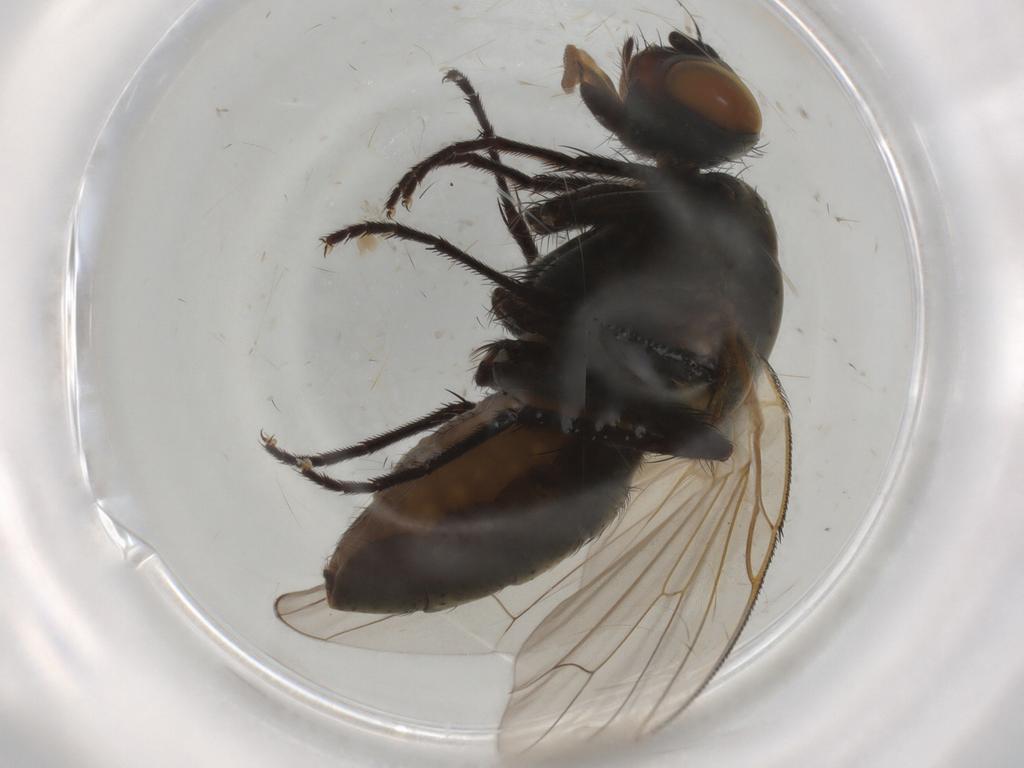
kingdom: Animalia
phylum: Arthropoda
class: Insecta
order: Diptera
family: Anthomyiidae
